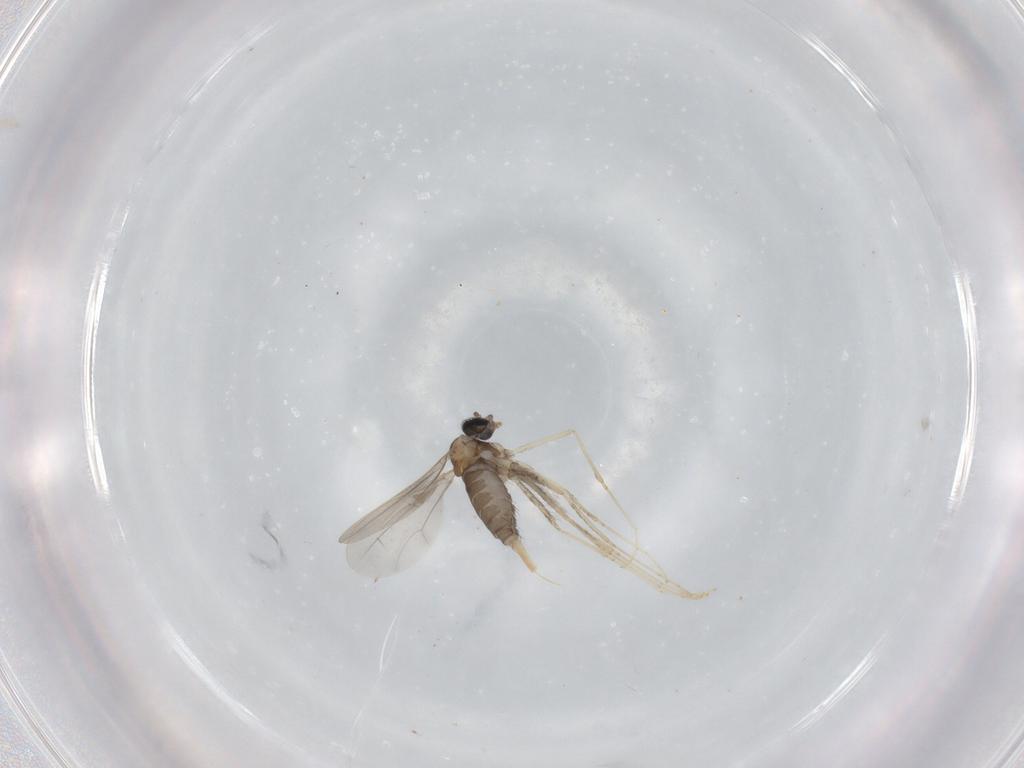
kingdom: Animalia
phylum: Arthropoda
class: Insecta
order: Diptera
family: Cecidomyiidae
